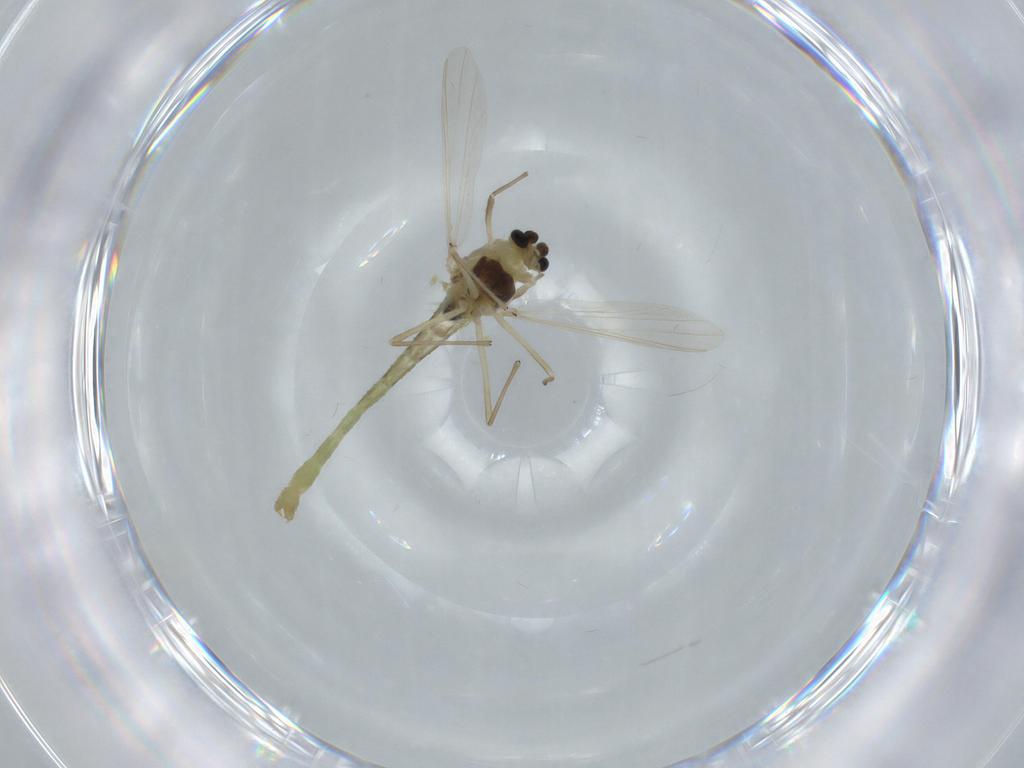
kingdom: Animalia
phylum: Arthropoda
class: Insecta
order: Diptera
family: Chironomidae
